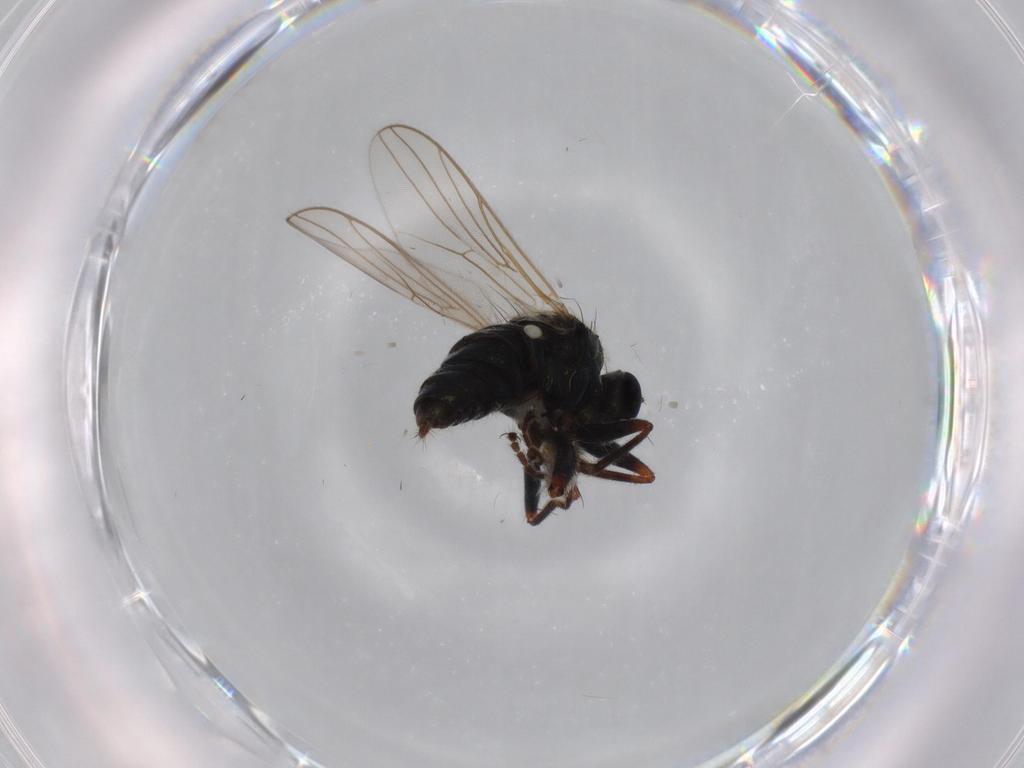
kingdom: Animalia
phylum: Arthropoda
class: Insecta
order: Diptera
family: Hybotidae
